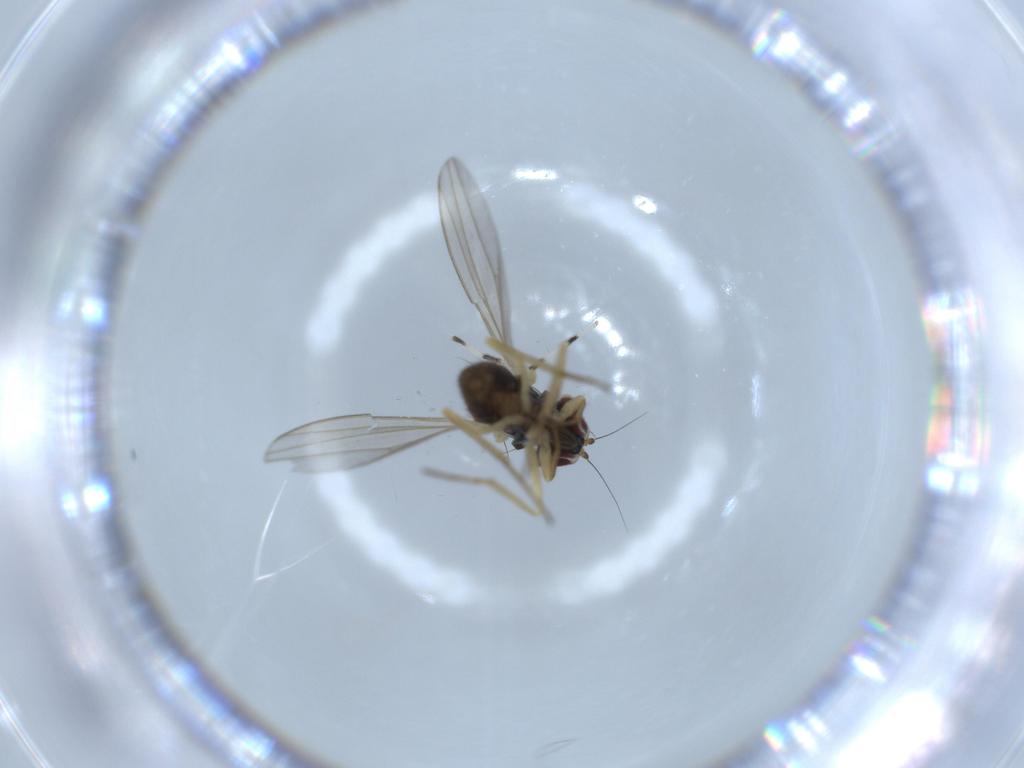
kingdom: Animalia
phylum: Arthropoda
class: Insecta
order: Diptera
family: Dolichopodidae
